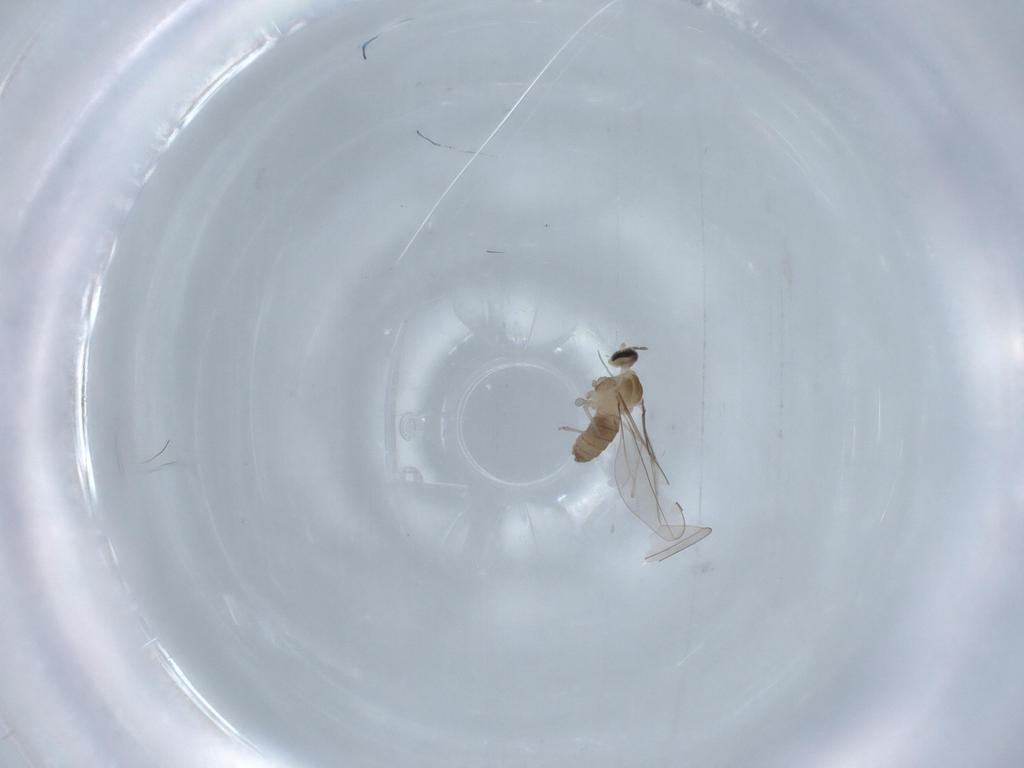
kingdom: Animalia
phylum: Arthropoda
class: Insecta
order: Diptera
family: Cecidomyiidae
